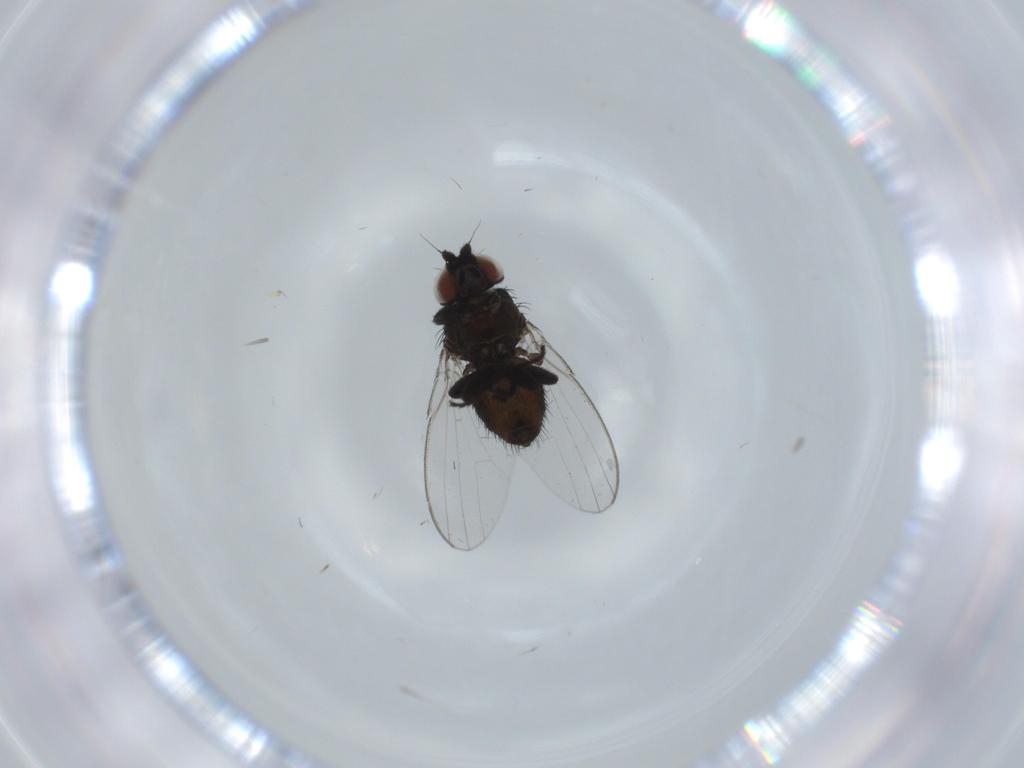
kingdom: Animalia
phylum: Arthropoda
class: Insecta
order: Diptera
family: Milichiidae
